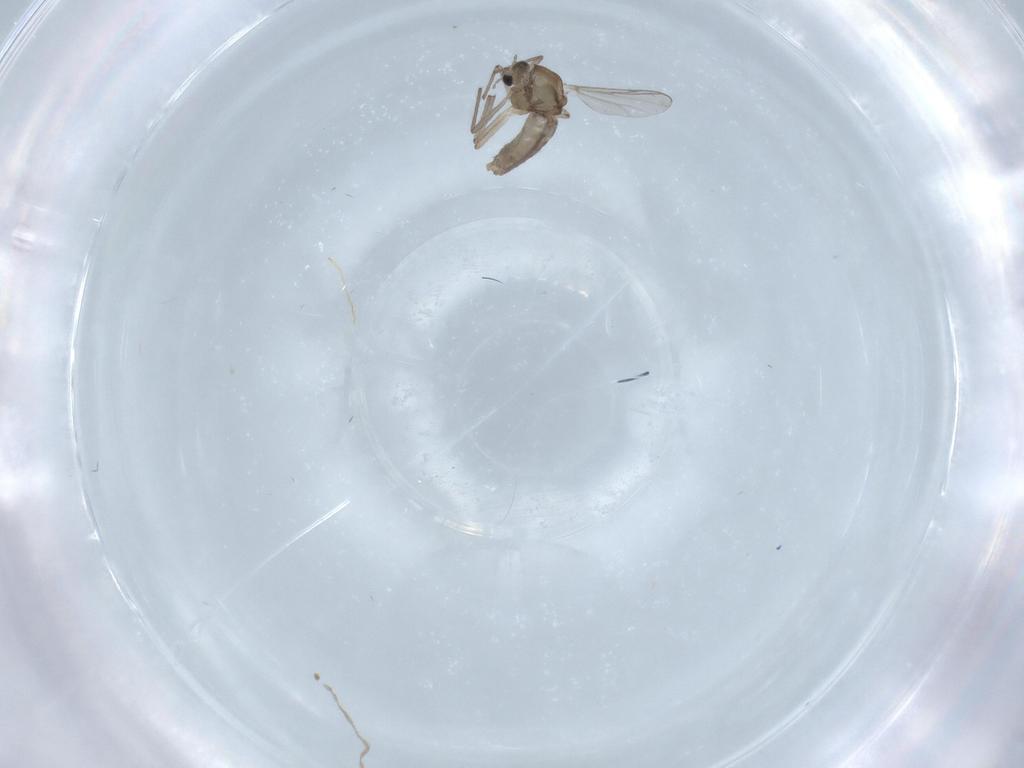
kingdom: Animalia
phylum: Arthropoda
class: Insecta
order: Diptera
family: Chironomidae
